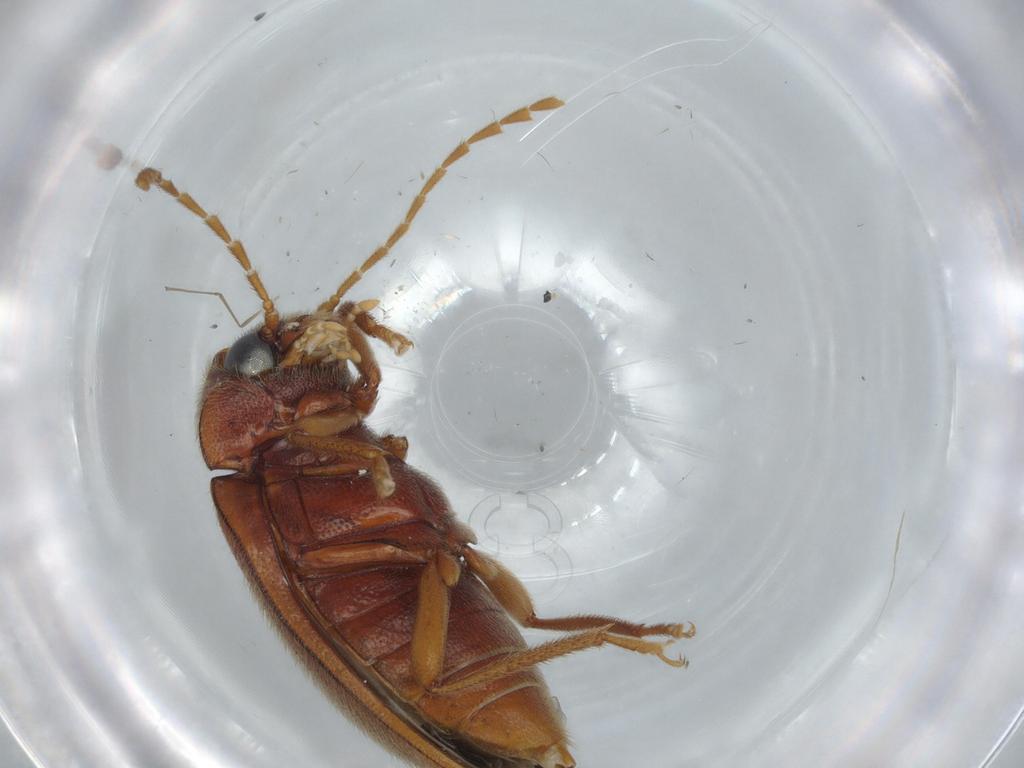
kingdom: Animalia
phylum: Arthropoda
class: Insecta
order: Coleoptera
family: Ptilodactylidae
